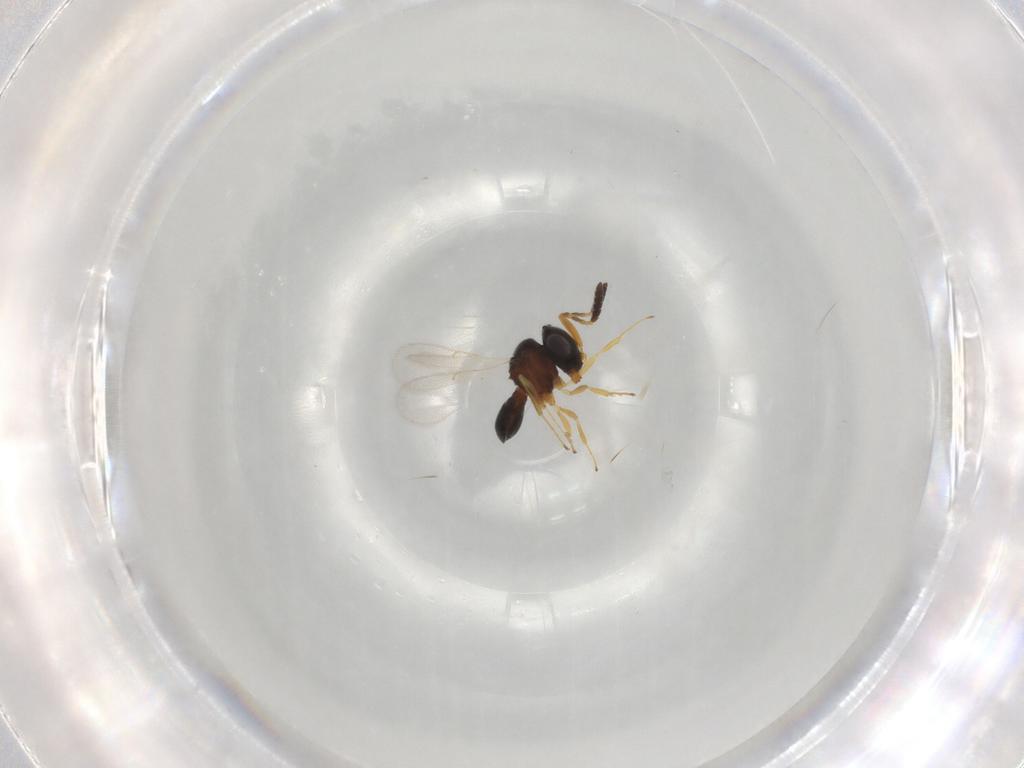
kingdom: Animalia
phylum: Arthropoda
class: Insecta
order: Hymenoptera
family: Scelionidae
